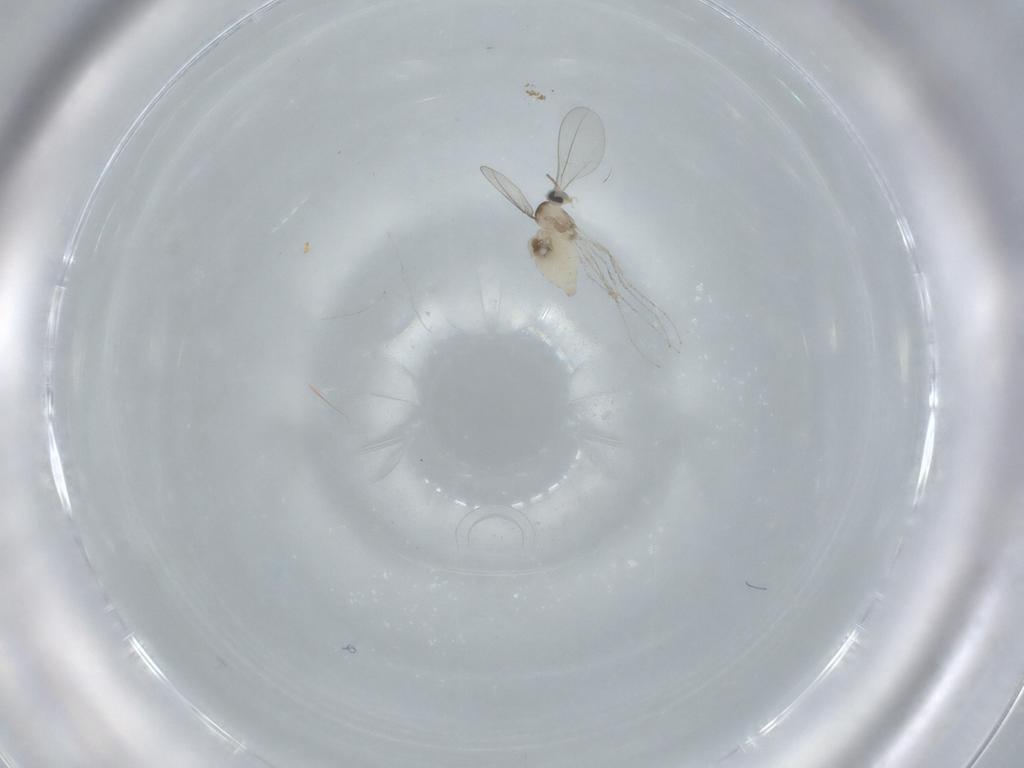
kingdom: Animalia
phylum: Arthropoda
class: Insecta
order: Diptera
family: Cecidomyiidae
